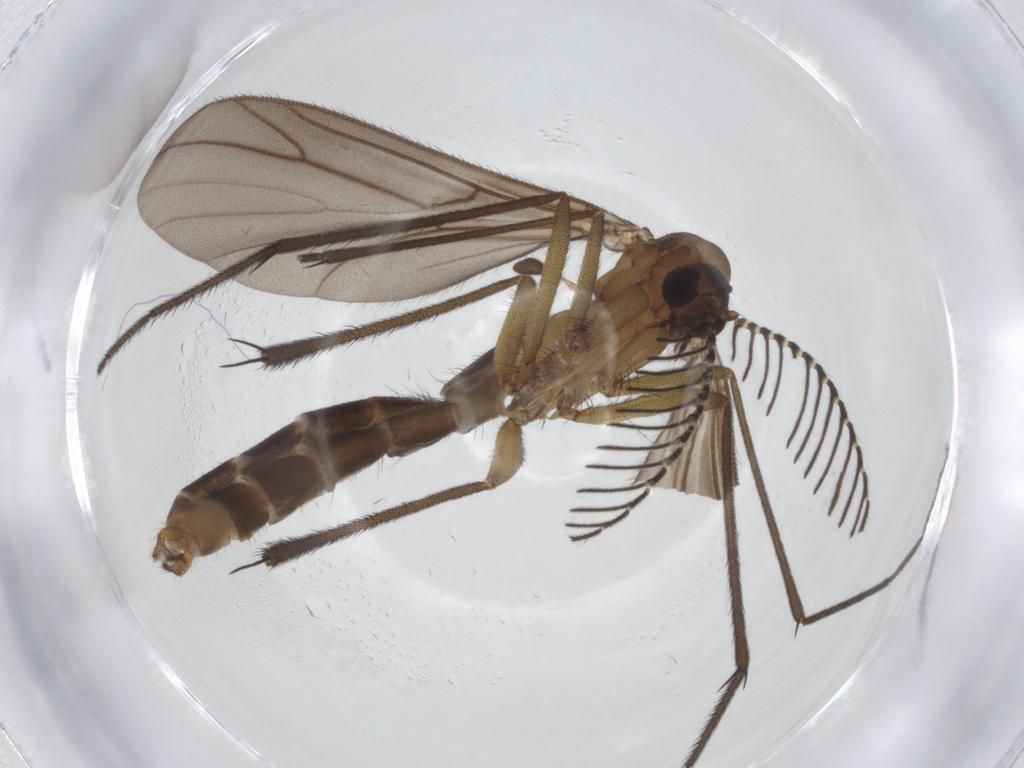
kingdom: Animalia
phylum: Arthropoda
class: Insecta
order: Diptera
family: Ditomyiidae
